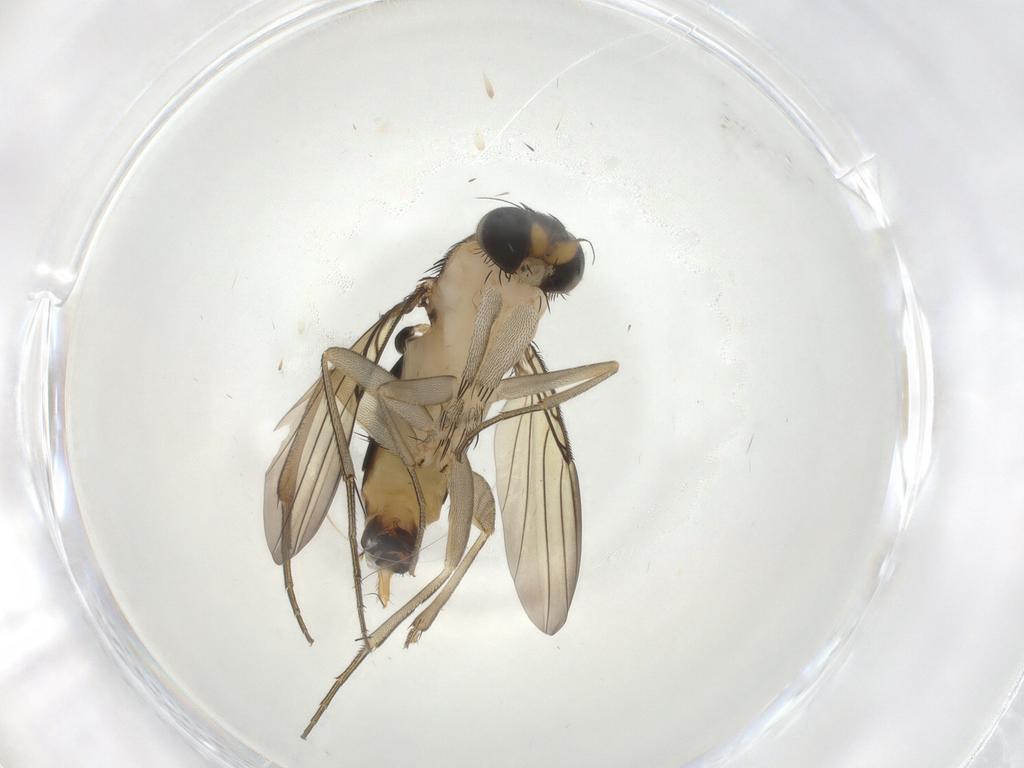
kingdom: Animalia
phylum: Arthropoda
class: Insecta
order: Diptera
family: Phoridae
